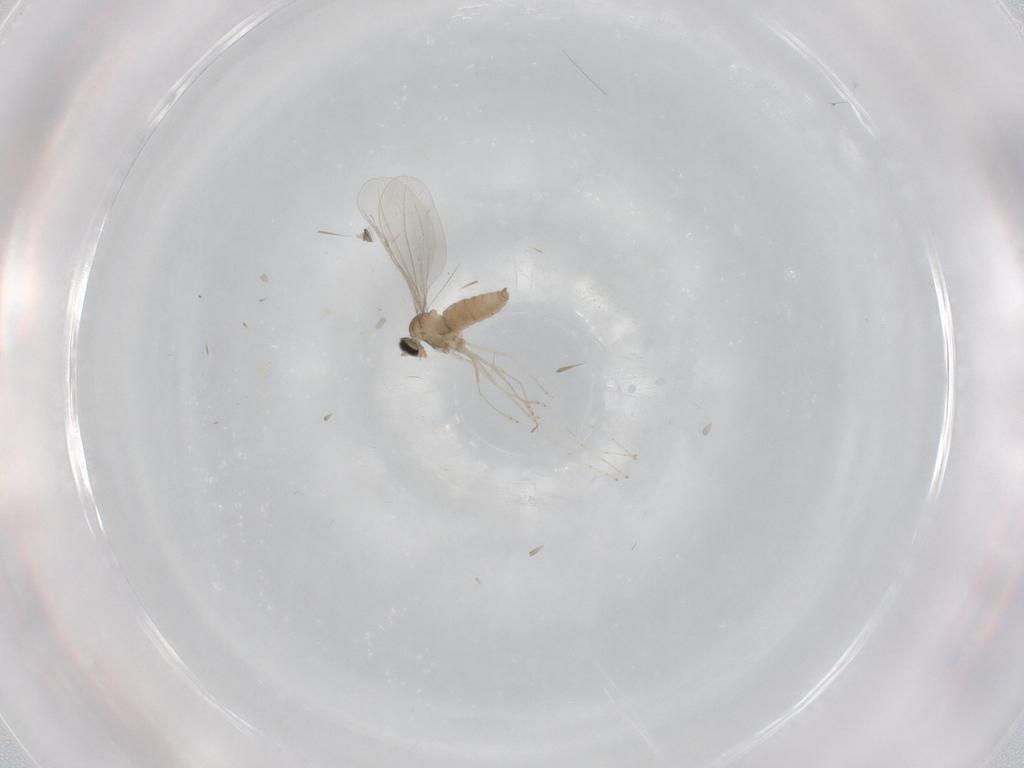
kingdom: Animalia
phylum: Arthropoda
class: Insecta
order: Diptera
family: Cecidomyiidae
